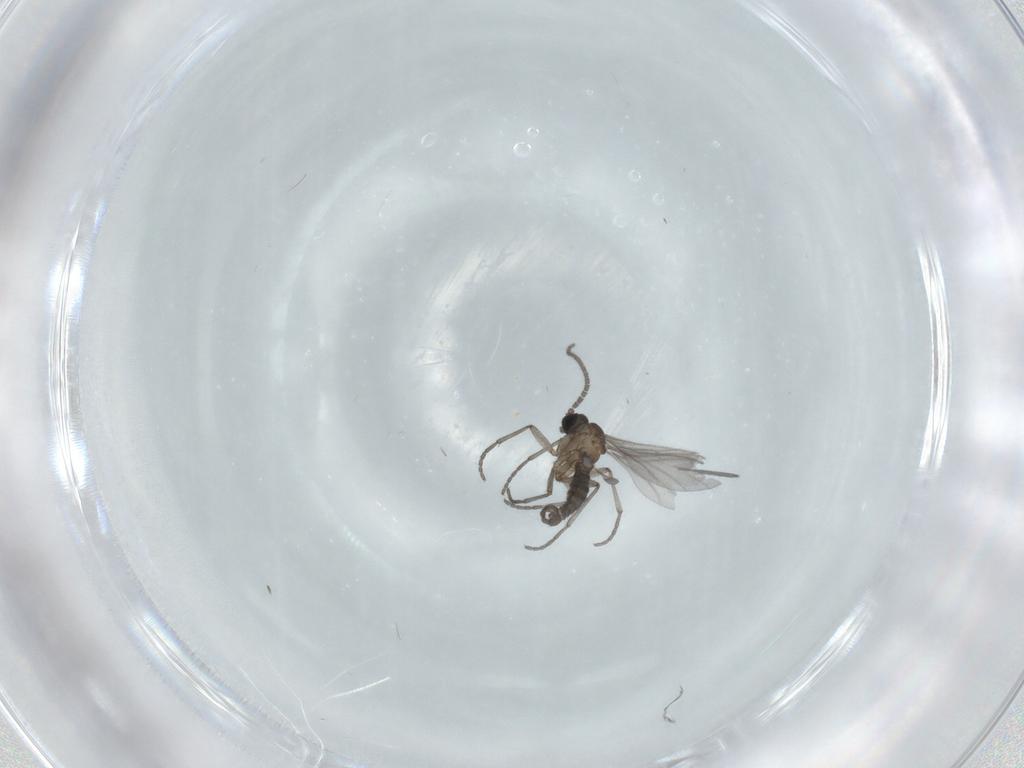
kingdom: Animalia
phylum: Arthropoda
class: Insecta
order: Diptera
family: Sciaridae
